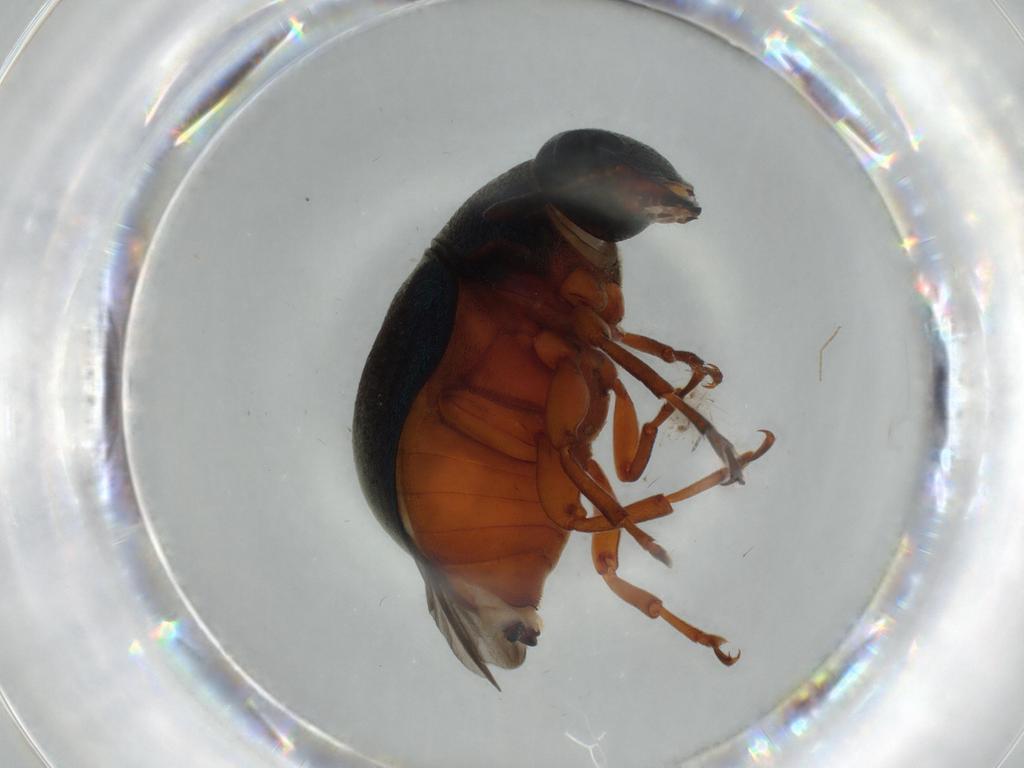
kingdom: Animalia
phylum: Arthropoda
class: Insecta
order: Coleoptera
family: Anthribidae
